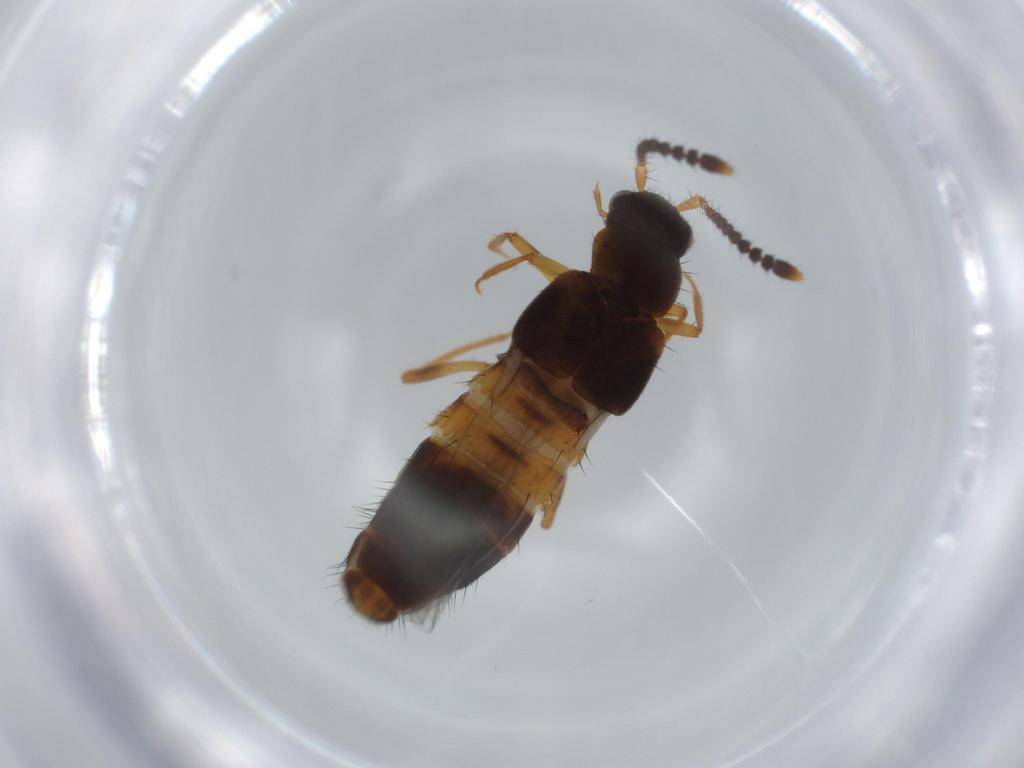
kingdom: Animalia
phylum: Arthropoda
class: Insecta
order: Coleoptera
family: Staphylinidae
